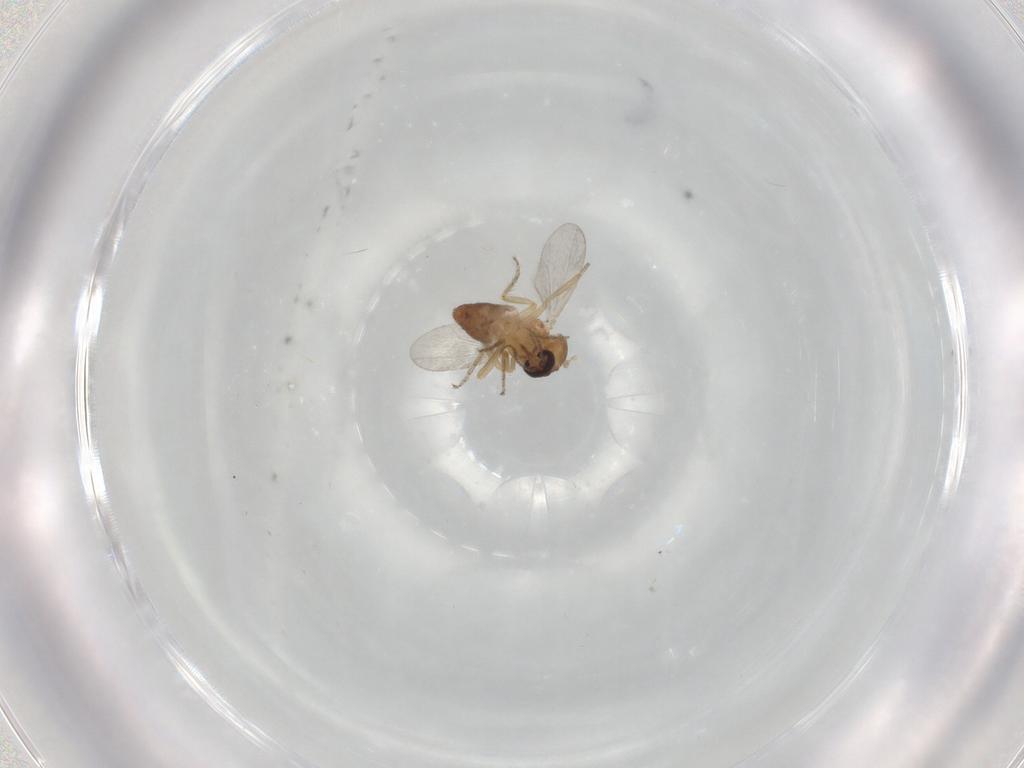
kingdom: Animalia
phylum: Arthropoda
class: Insecta
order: Diptera
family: Ceratopogonidae
